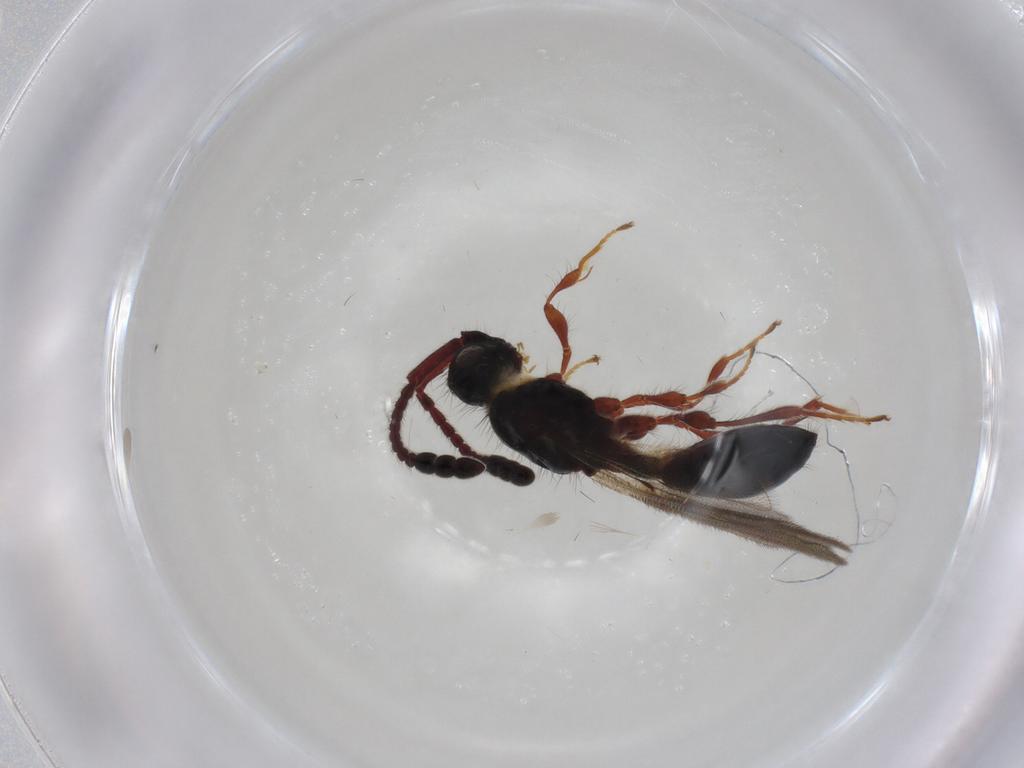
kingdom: Animalia
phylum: Arthropoda
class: Insecta
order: Hymenoptera
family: Diapriidae
